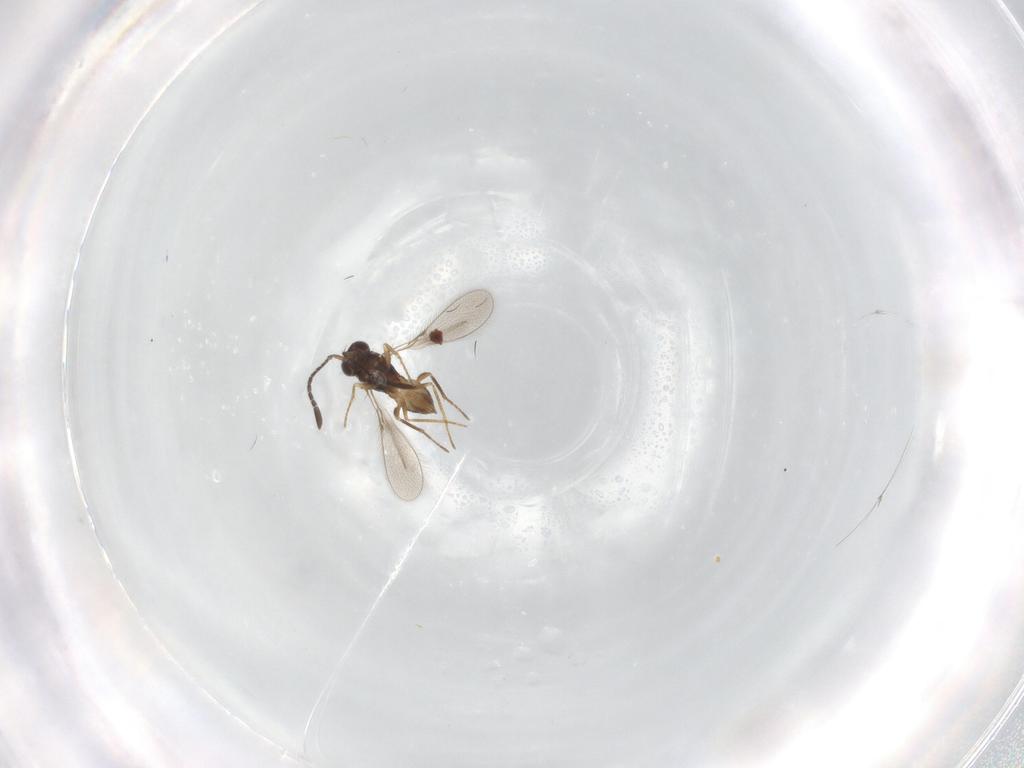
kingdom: Animalia
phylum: Arthropoda
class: Insecta
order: Hymenoptera
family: Mymaridae
